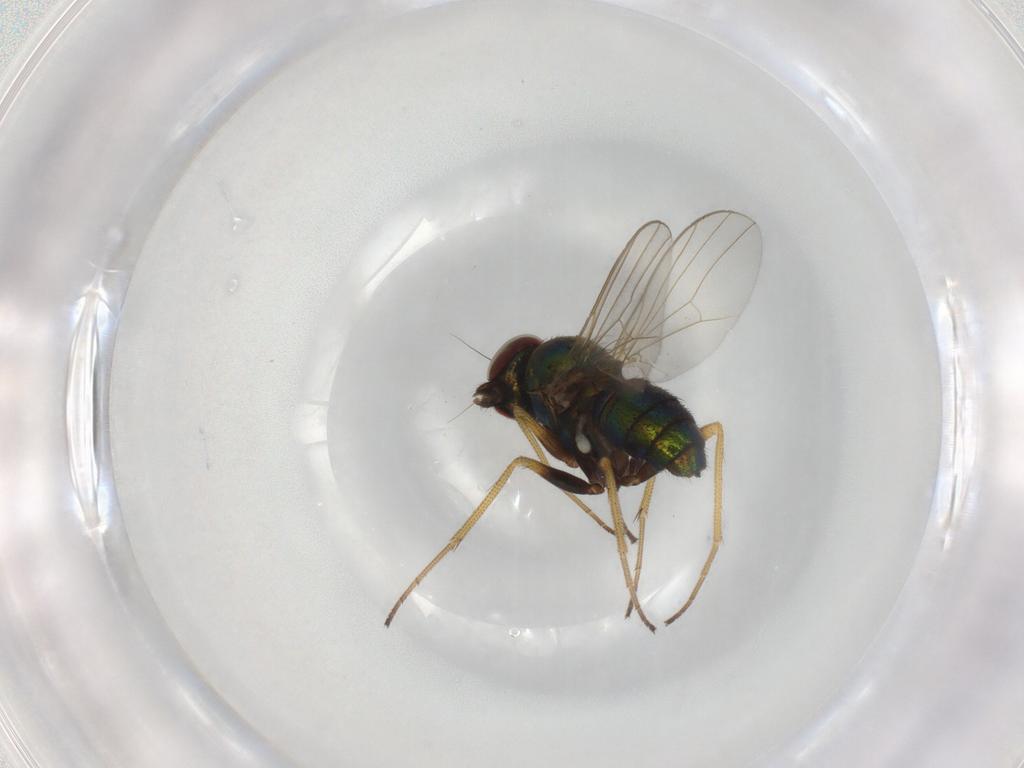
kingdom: Animalia
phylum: Arthropoda
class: Insecta
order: Diptera
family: Dolichopodidae
